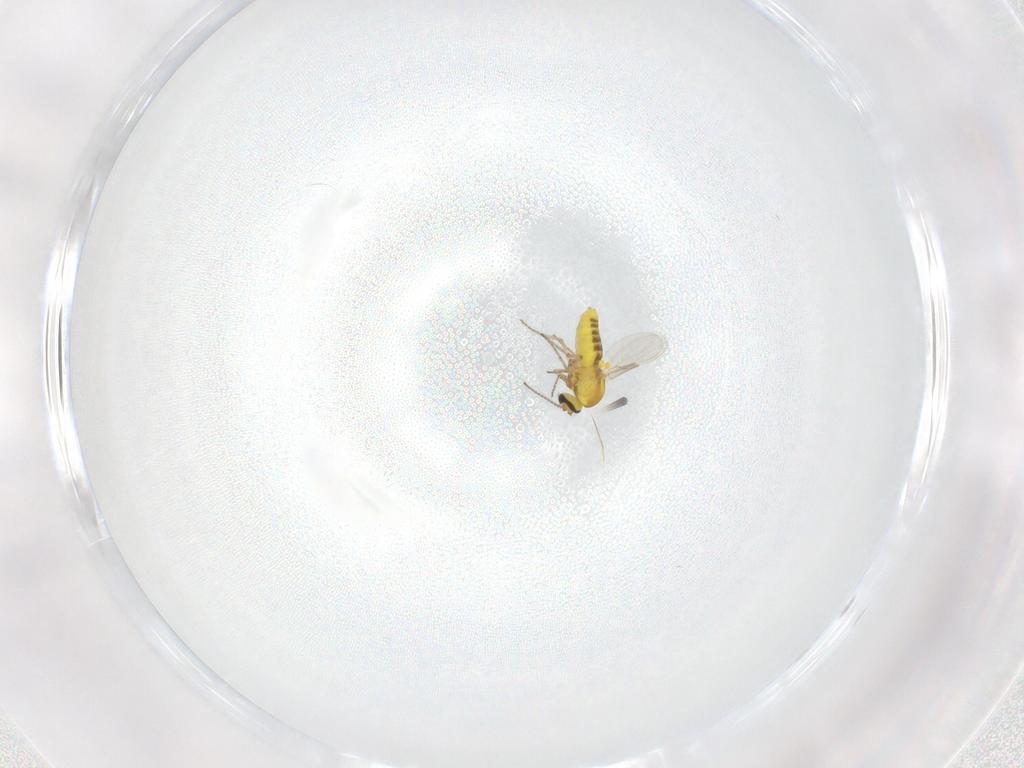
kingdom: Animalia
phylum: Arthropoda
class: Insecta
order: Diptera
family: Ceratopogonidae
